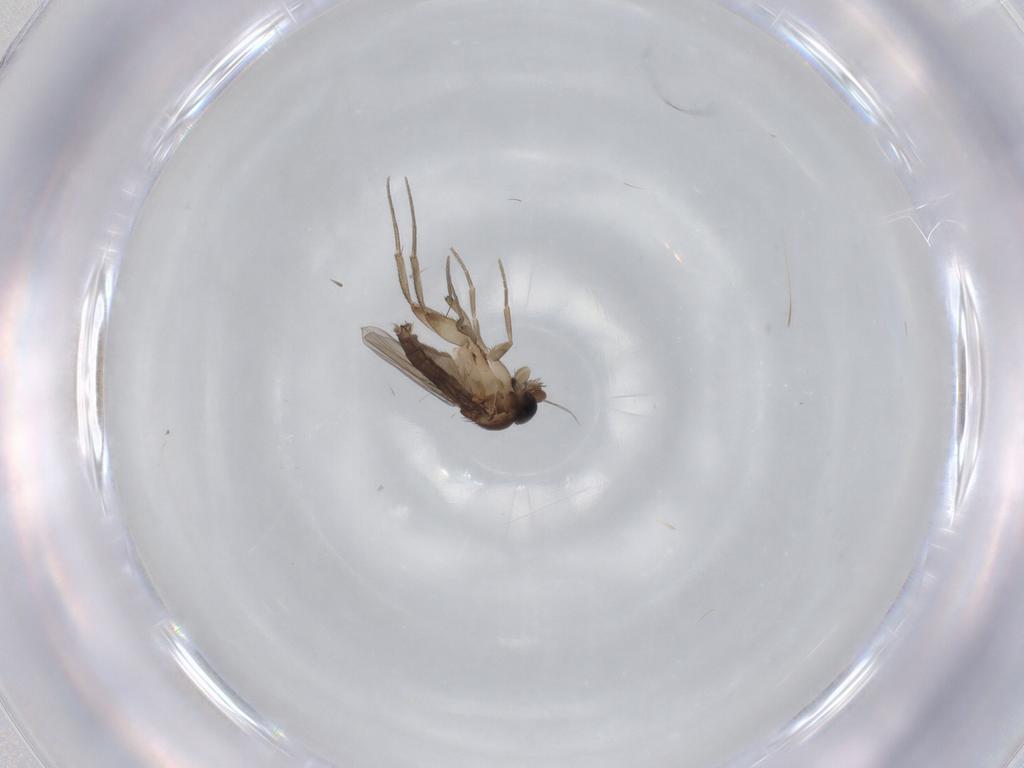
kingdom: Animalia
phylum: Arthropoda
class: Insecta
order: Diptera
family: Phoridae
